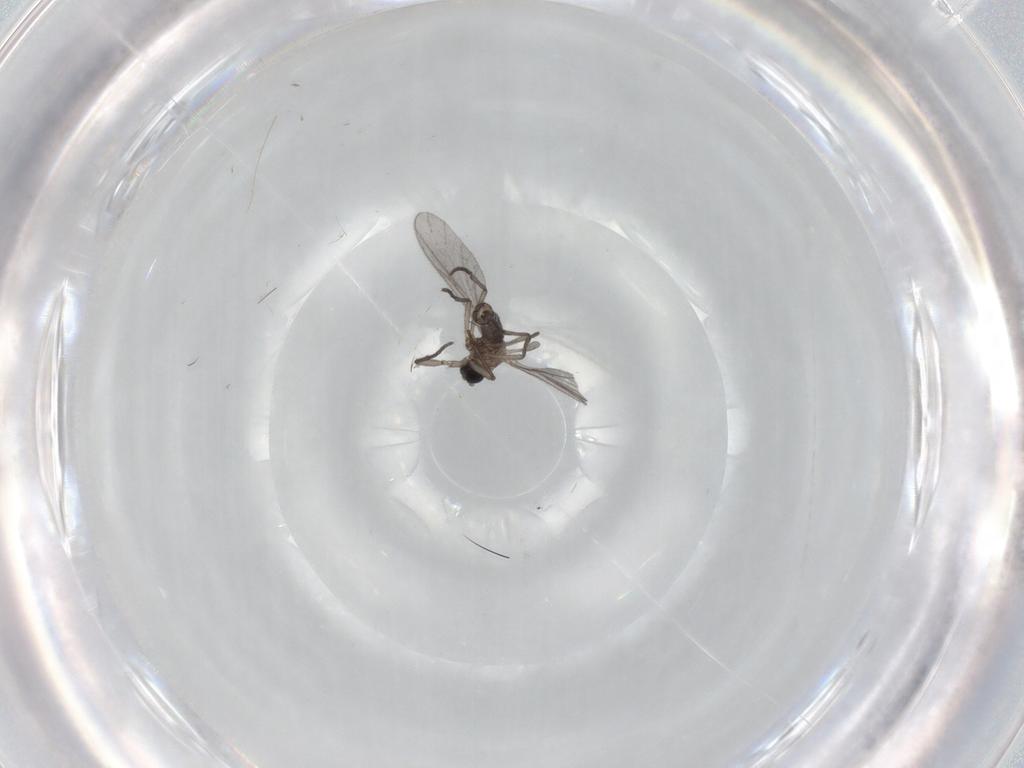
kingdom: Animalia
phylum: Arthropoda
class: Insecta
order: Diptera
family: Sciaridae
